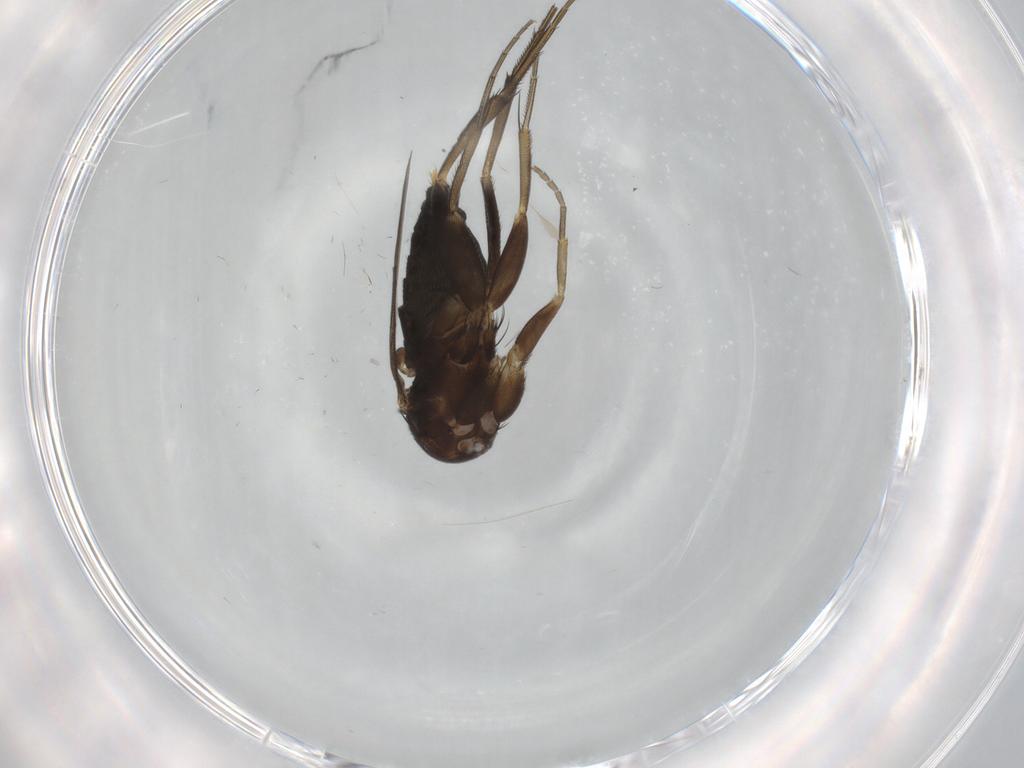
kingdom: Animalia
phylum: Arthropoda
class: Insecta
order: Diptera
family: Phoridae
